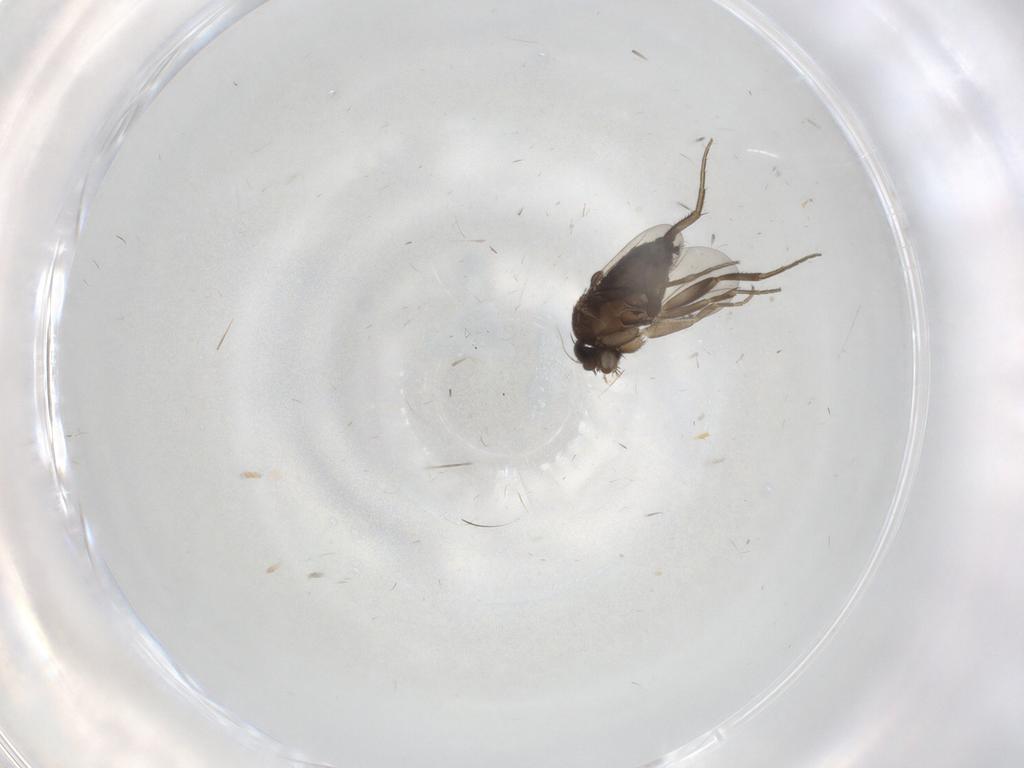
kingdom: Animalia
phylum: Arthropoda
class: Insecta
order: Diptera
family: Phoridae
